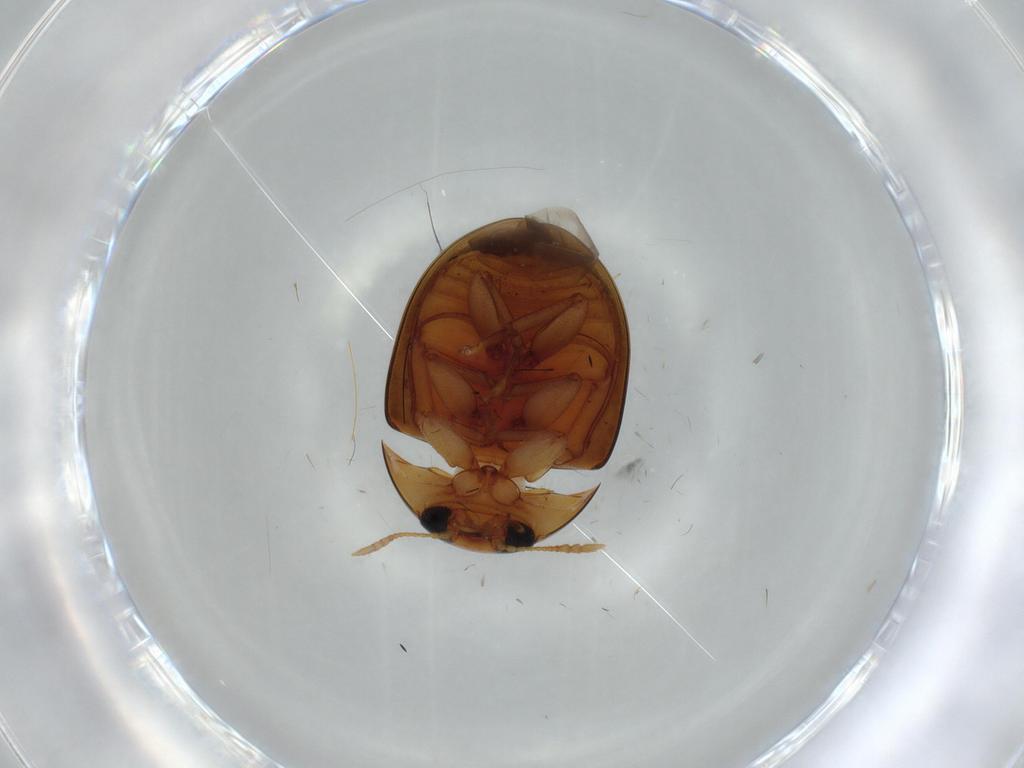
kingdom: Animalia
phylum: Arthropoda
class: Insecta
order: Coleoptera
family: Phalacridae
